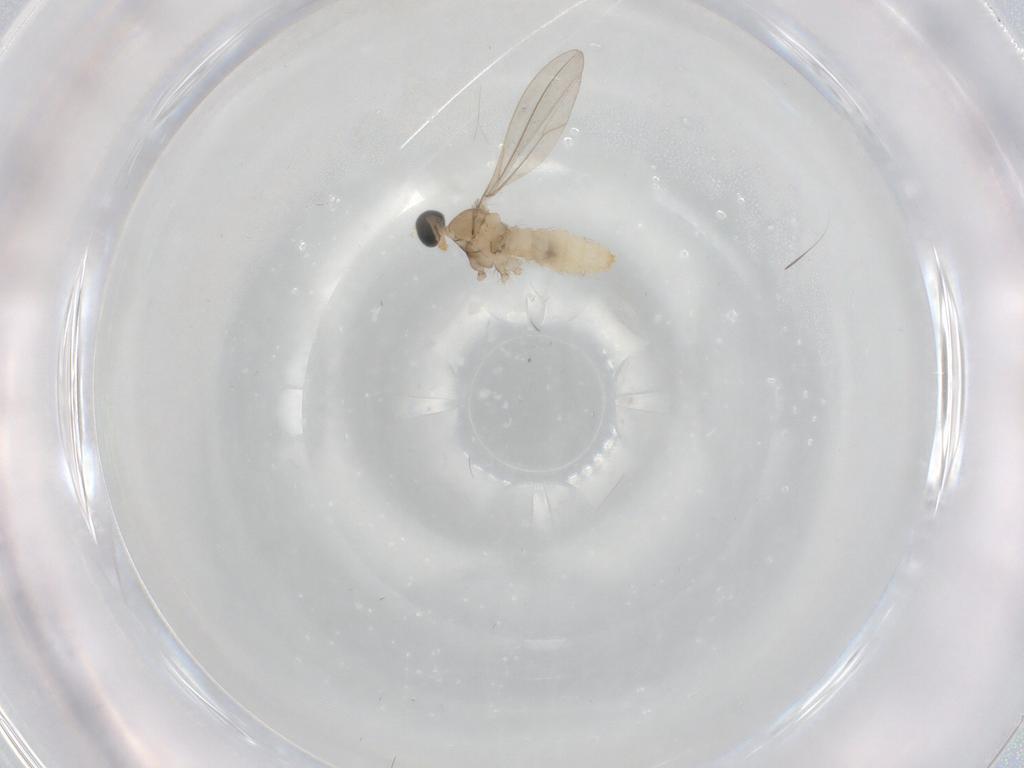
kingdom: Animalia
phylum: Arthropoda
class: Insecta
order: Diptera
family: Cecidomyiidae
